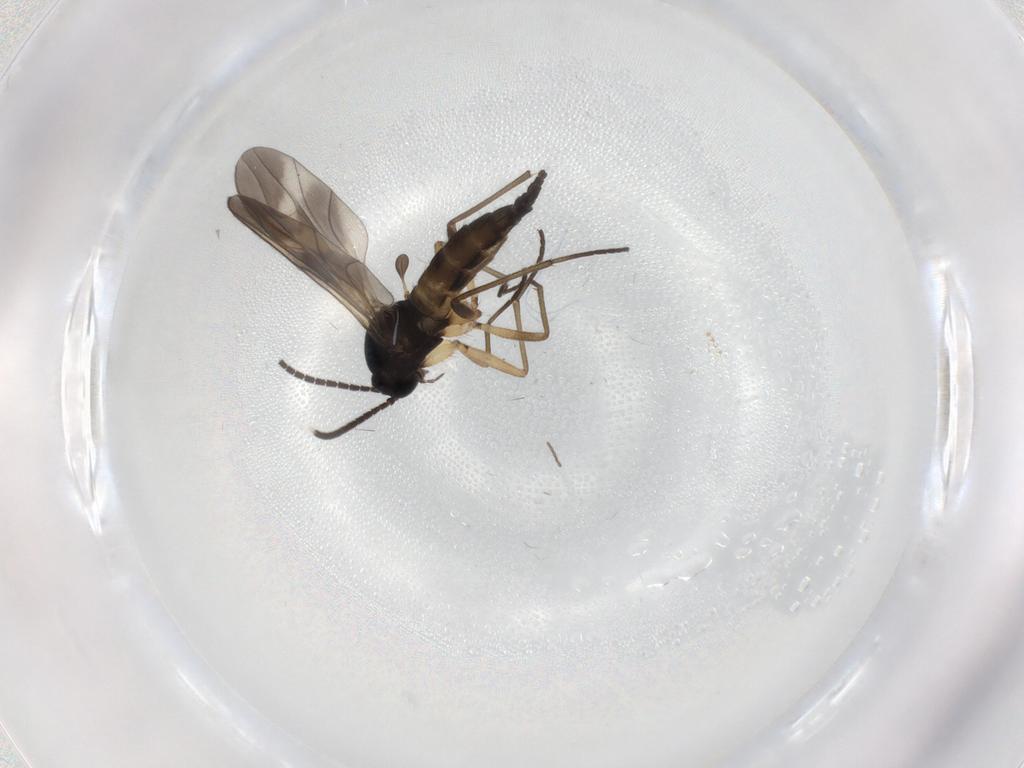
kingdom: Animalia
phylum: Arthropoda
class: Insecta
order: Diptera
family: Sciaridae
